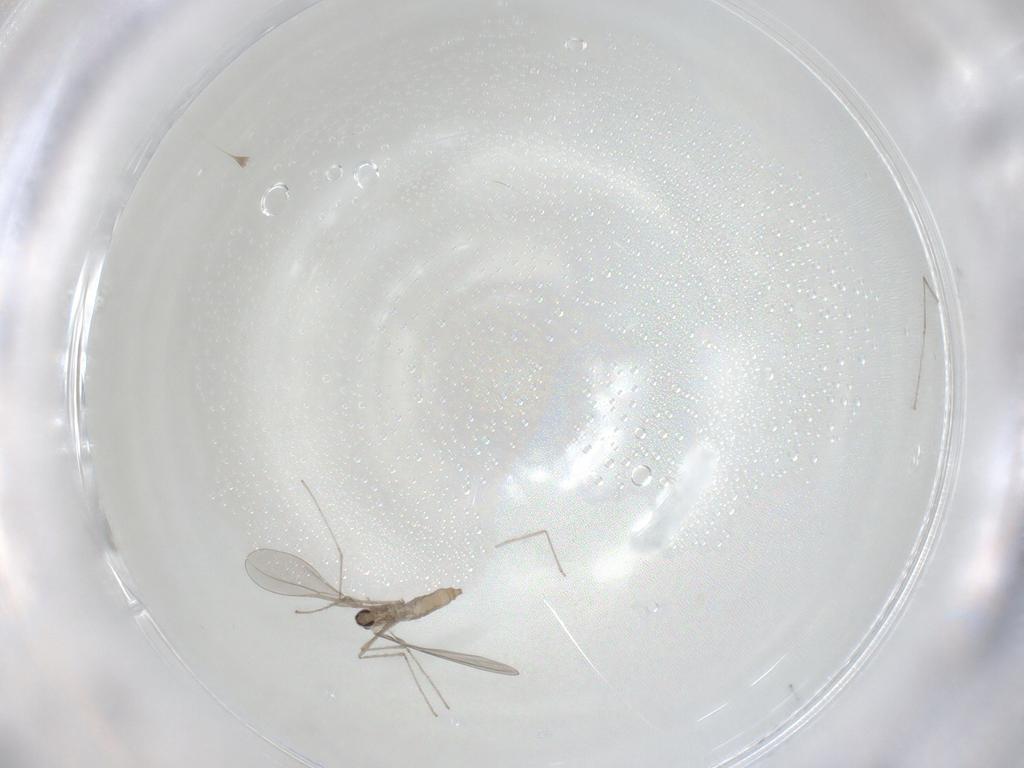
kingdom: Animalia
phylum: Arthropoda
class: Insecta
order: Diptera
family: Cecidomyiidae
